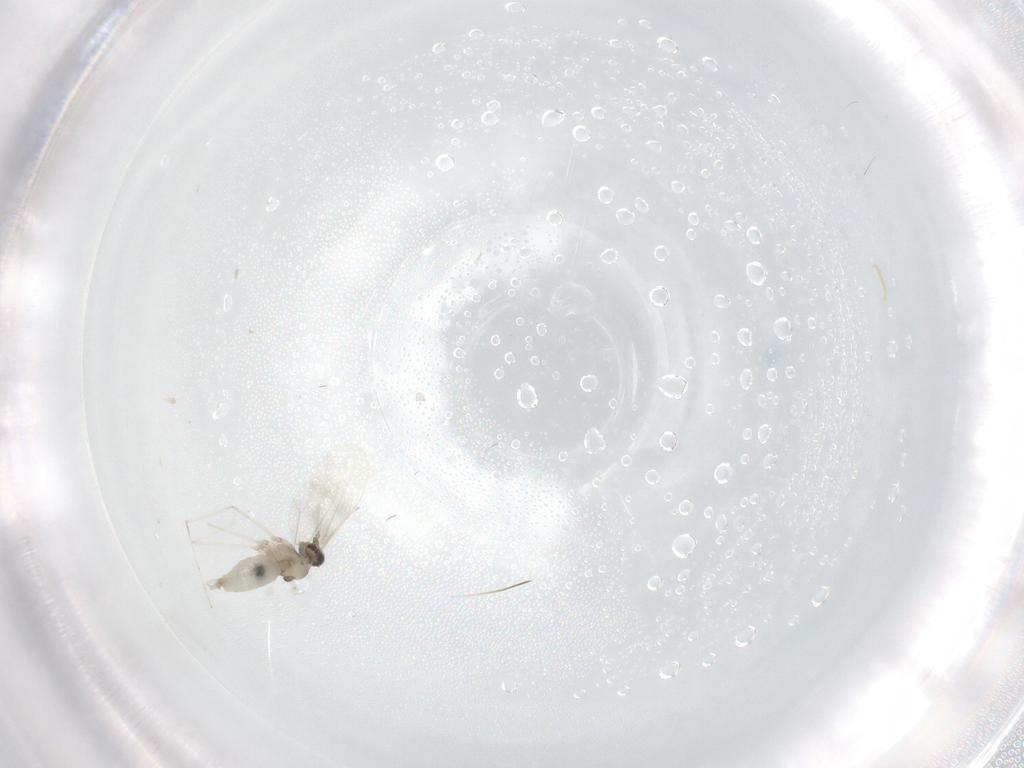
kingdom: Animalia
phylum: Arthropoda
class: Insecta
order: Diptera
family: Cecidomyiidae
